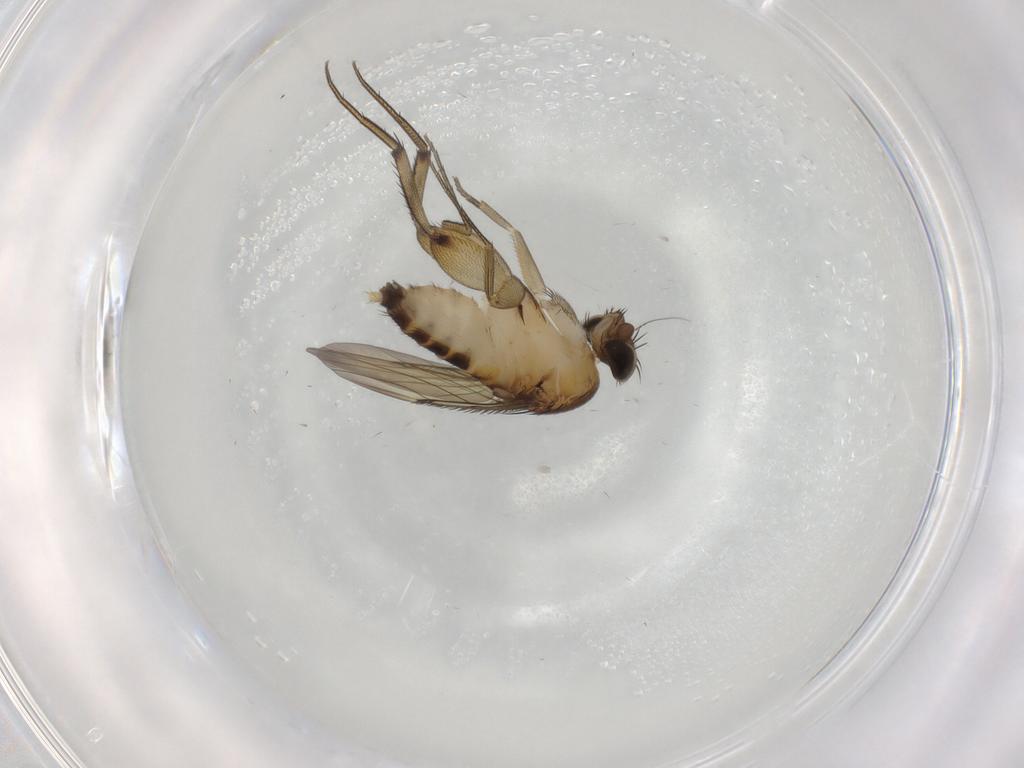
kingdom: Animalia
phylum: Arthropoda
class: Insecta
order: Diptera
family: Phoridae
